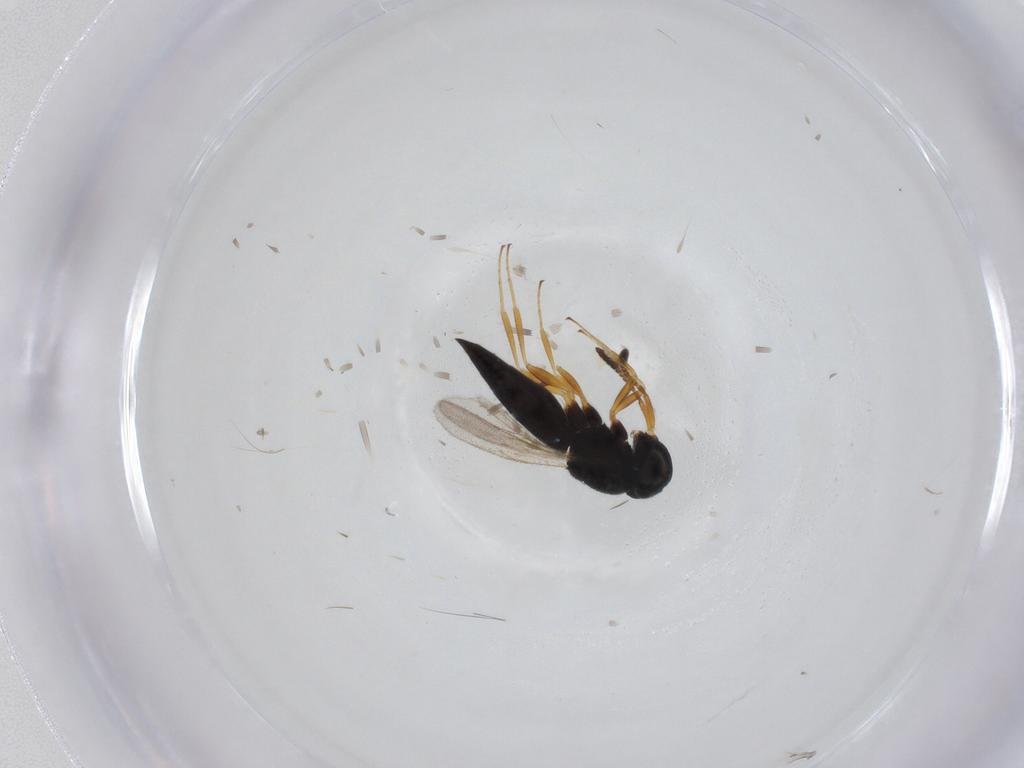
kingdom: Animalia
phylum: Arthropoda
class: Insecta
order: Hymenoptera
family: Scelionidae
